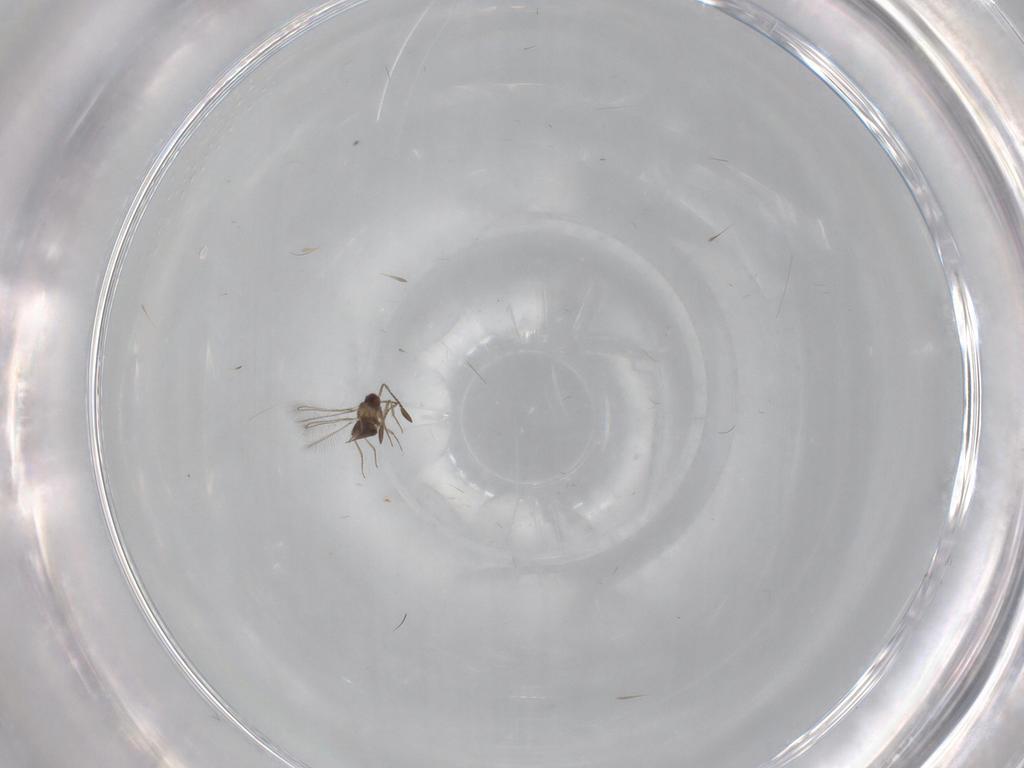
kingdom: Animalia
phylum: Arthropoda
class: Insecta
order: Hymenoptera
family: Mymaridae
